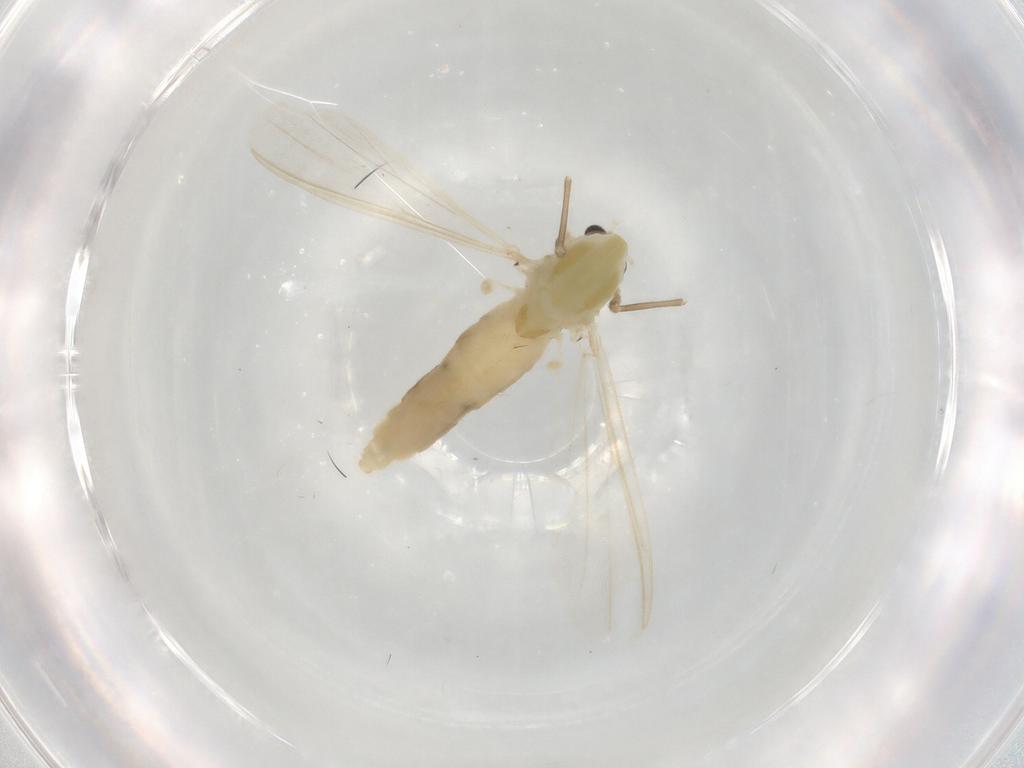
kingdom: Animalia
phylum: Arthropoda
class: Insecta
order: Diptera
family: Chironomidae
